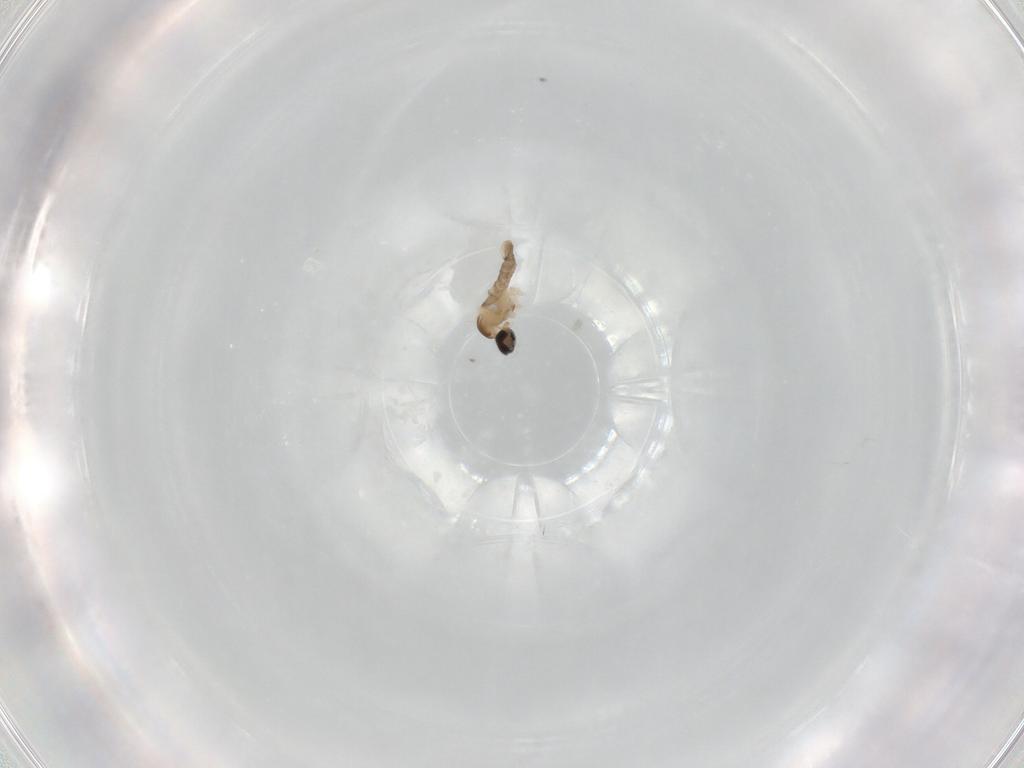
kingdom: Animalia
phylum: Arthropoda
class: Insecta
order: Diptera
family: Cecidomyiidae
